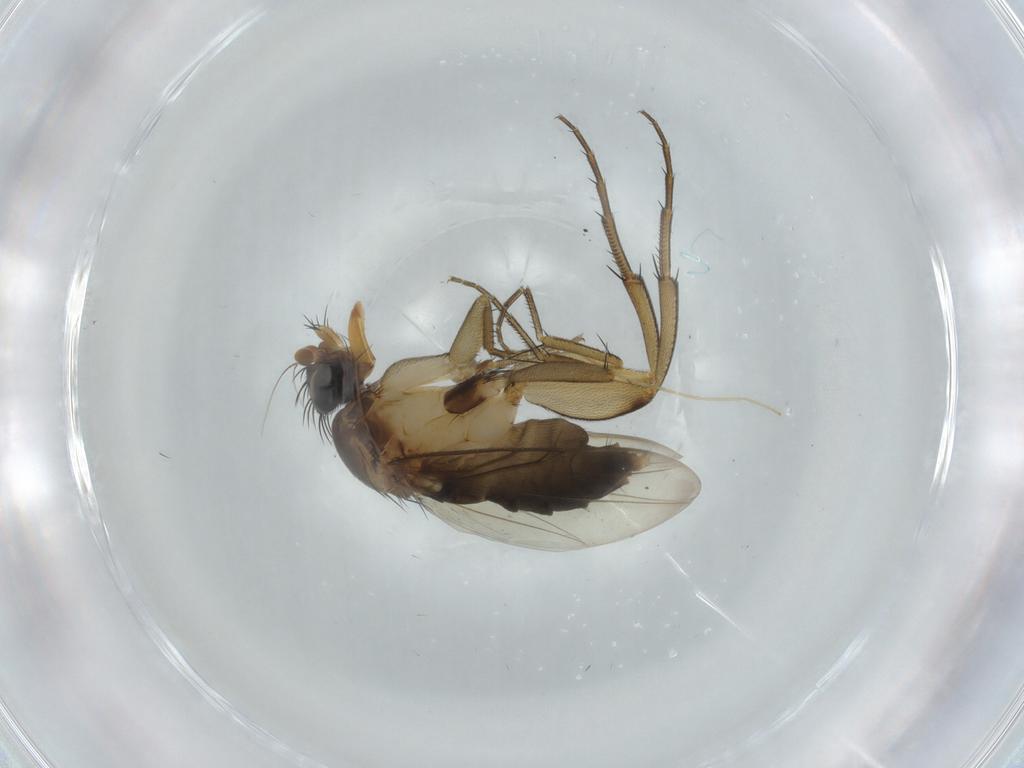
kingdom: Animalia
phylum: Arthropoda
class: Insecta
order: Diptera
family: Phoridae
